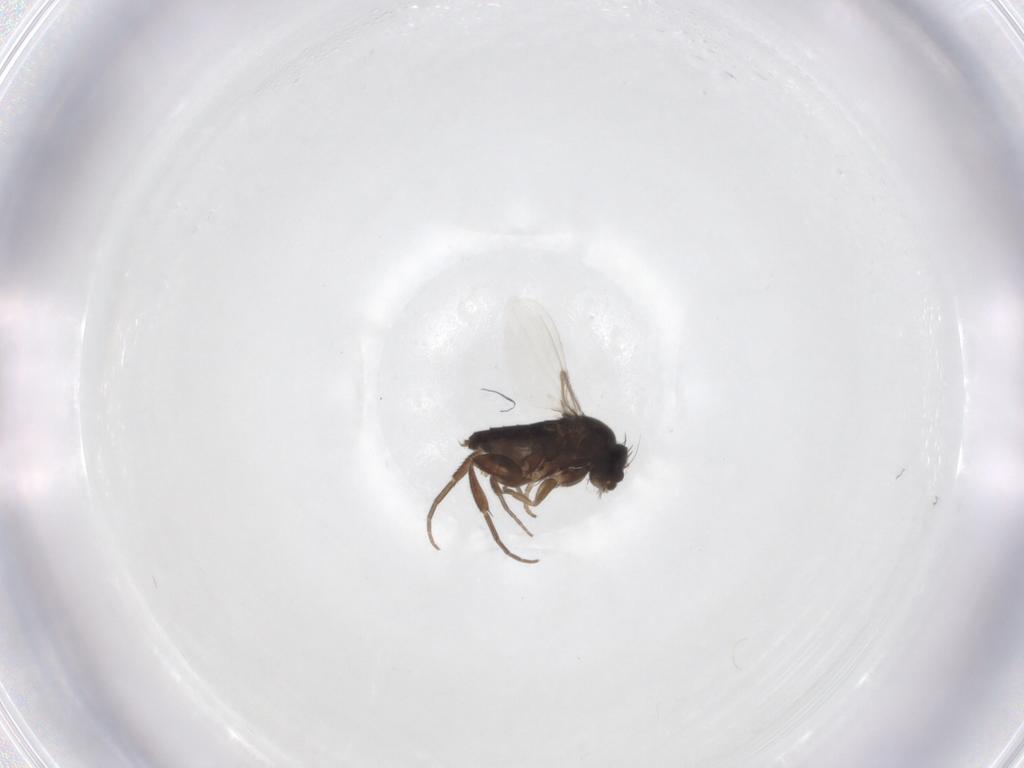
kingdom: Animalia
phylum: Arthropoda
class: Insecta
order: Diptera
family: Phoridae
